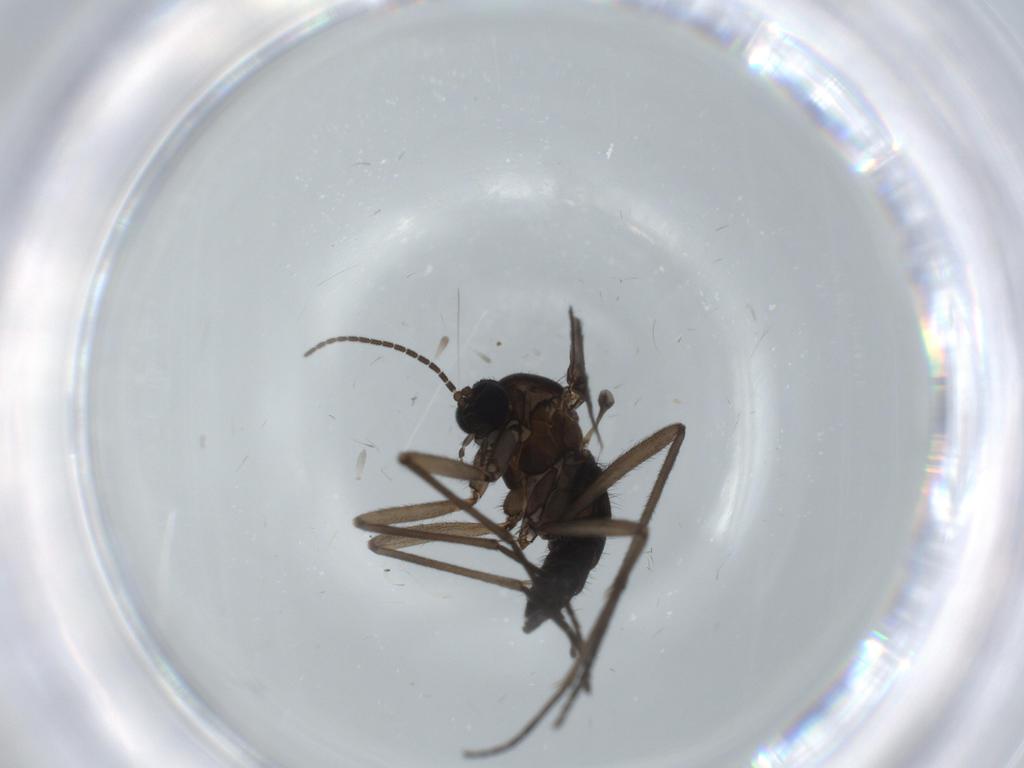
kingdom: Animalia
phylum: Arthropoda
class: Insecta
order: Diptera
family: Sciaridae
